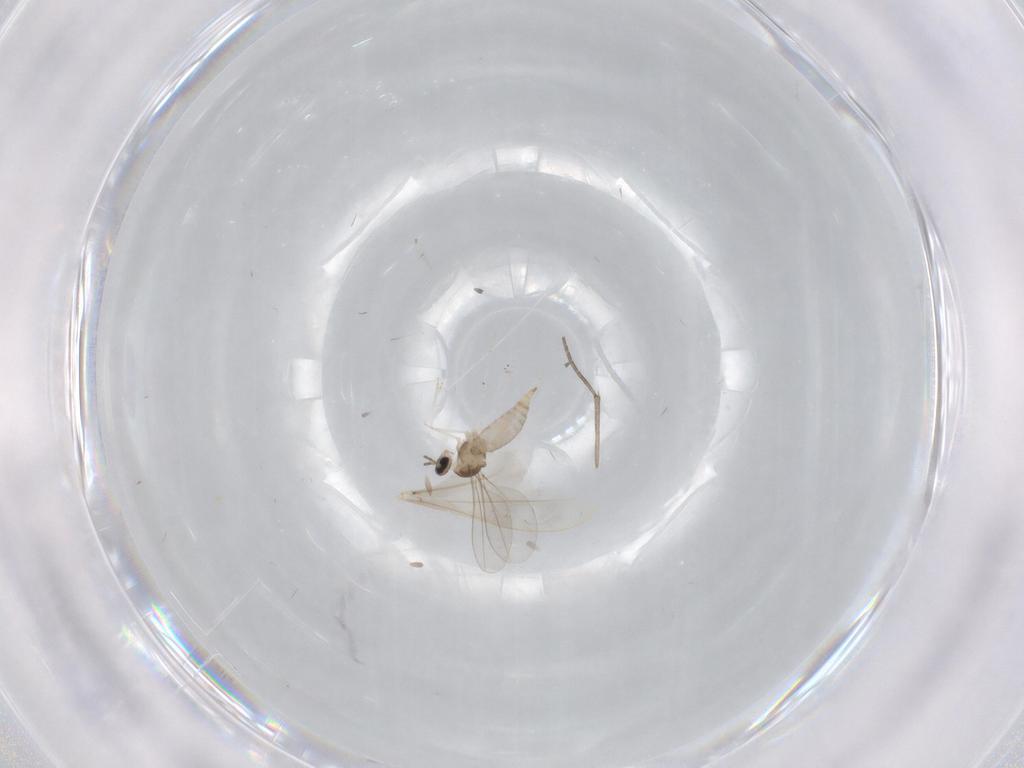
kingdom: Animalia
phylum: Arthropoda
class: Insecta
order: Diptera
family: Cecidomyiidae
